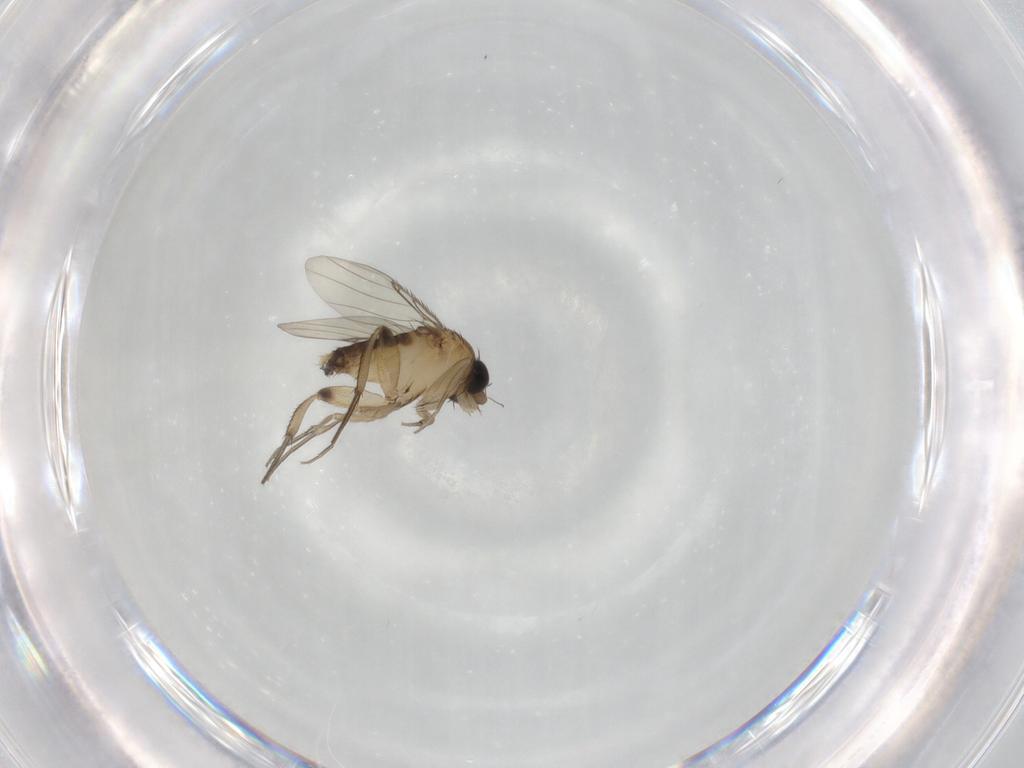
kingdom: Animalia
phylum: Arthropoda
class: Insecta
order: Diptera
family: Phoridae
